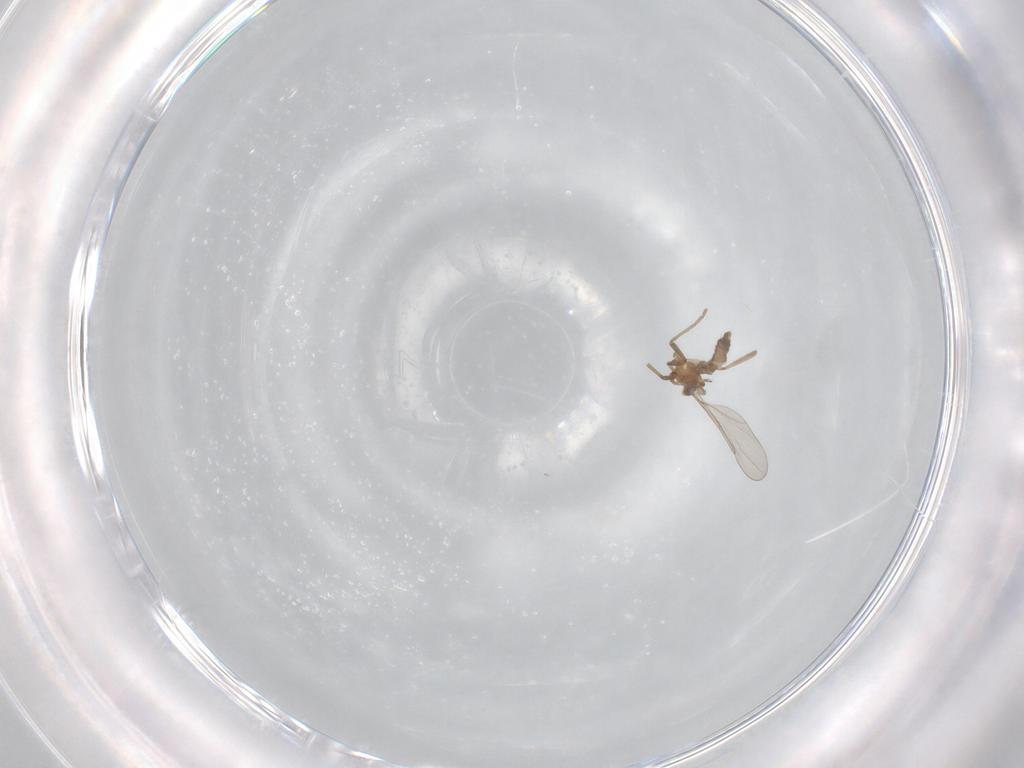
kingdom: Animalia
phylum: Arthropoda
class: Insecta
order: Diptera
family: Cecidomyiidae
